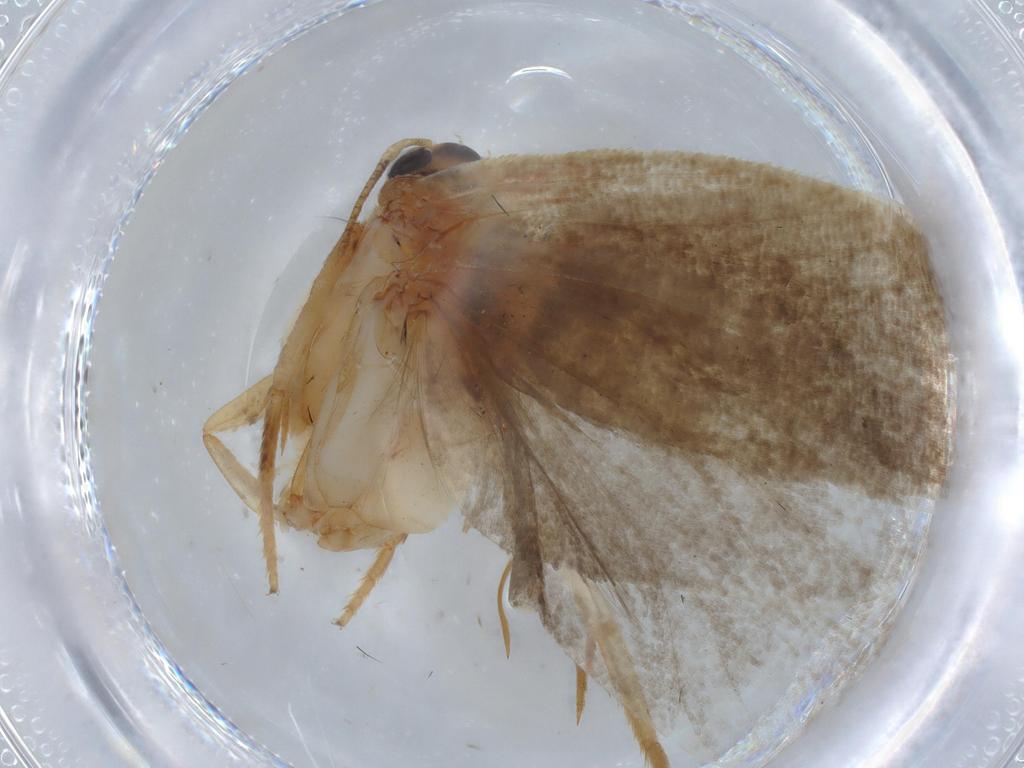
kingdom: Animalia
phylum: Arthropoda
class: Insecta
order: Lepidoptera
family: Depressariidae
